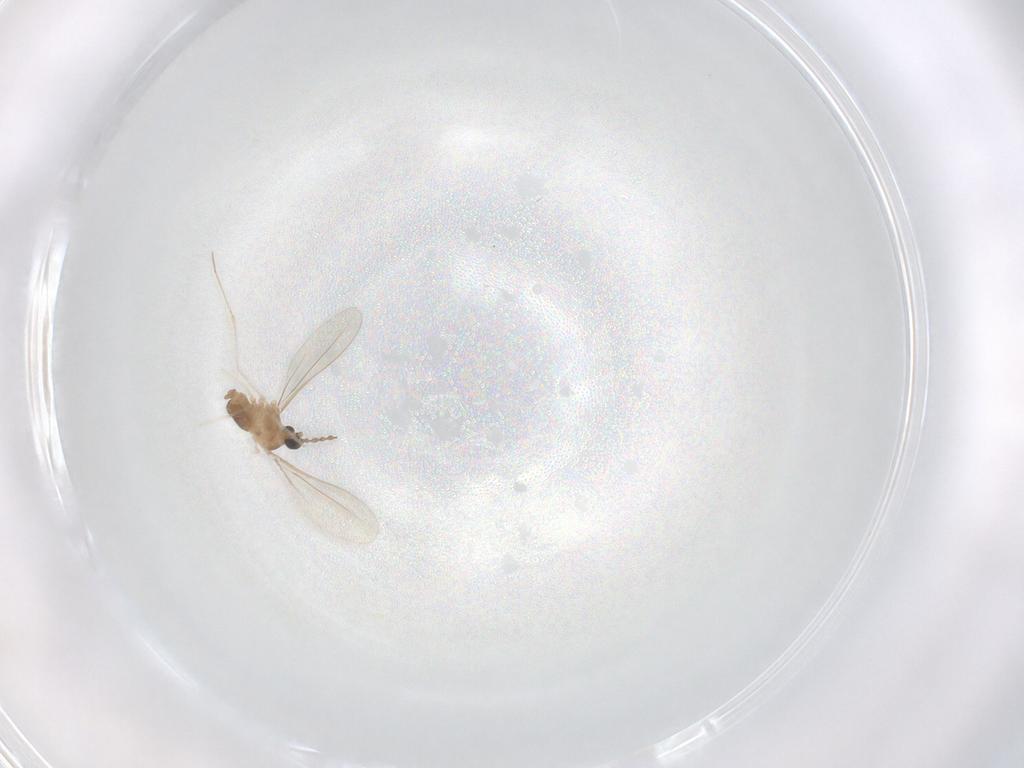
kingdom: Animalia
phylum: Arthropoda
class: Insecta
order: Diptera
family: Cecidomyiidae
